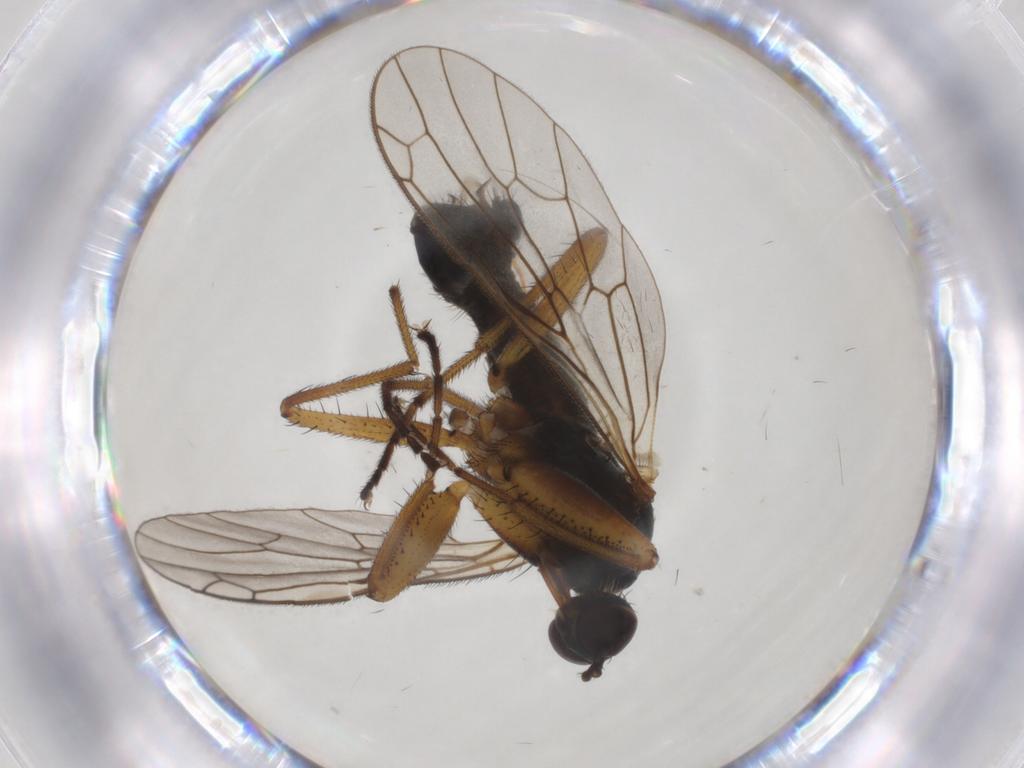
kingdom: Animalia
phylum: Arthropoda
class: Insecta
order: Diptera
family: Empididae
